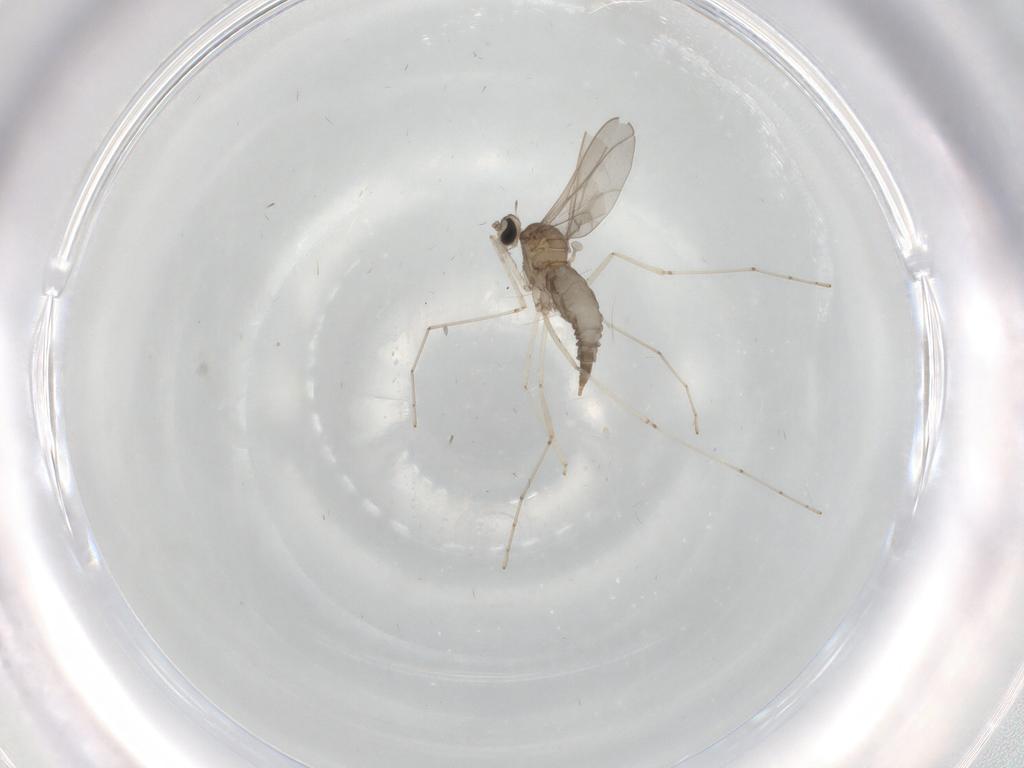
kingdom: Animalia
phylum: Arthropoda
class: Insecta
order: Diptera
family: Cecidomyiidae
